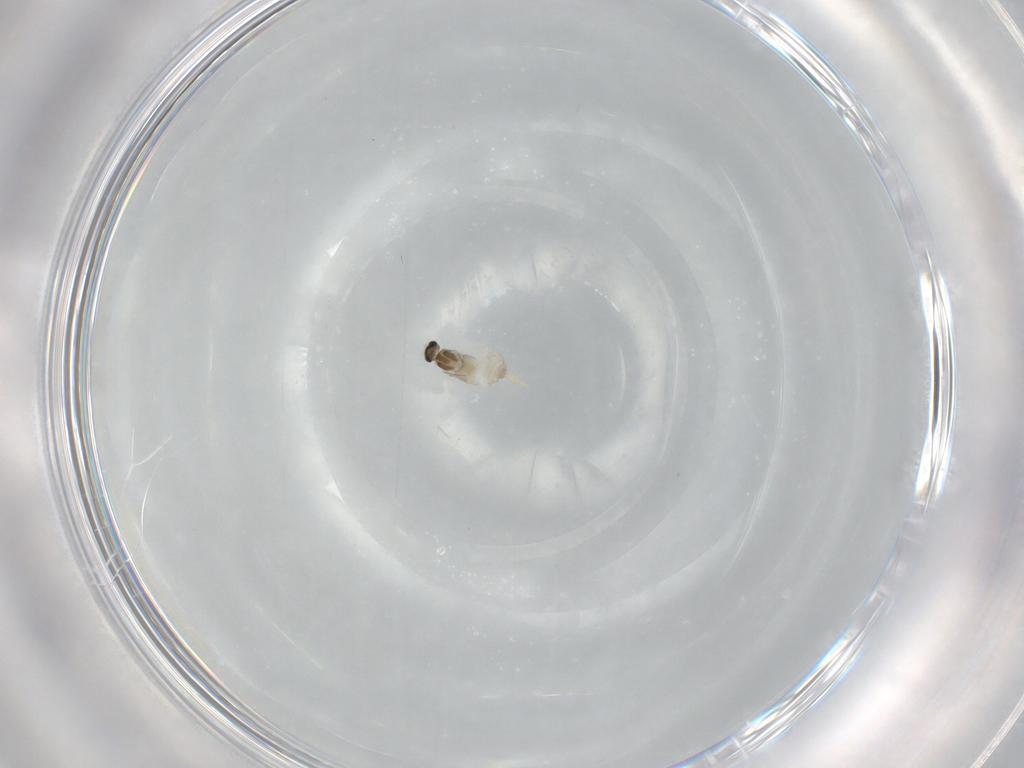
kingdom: Animalia
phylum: Arthropoda
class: Insecta
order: Diptera
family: Cecidomyiidae
